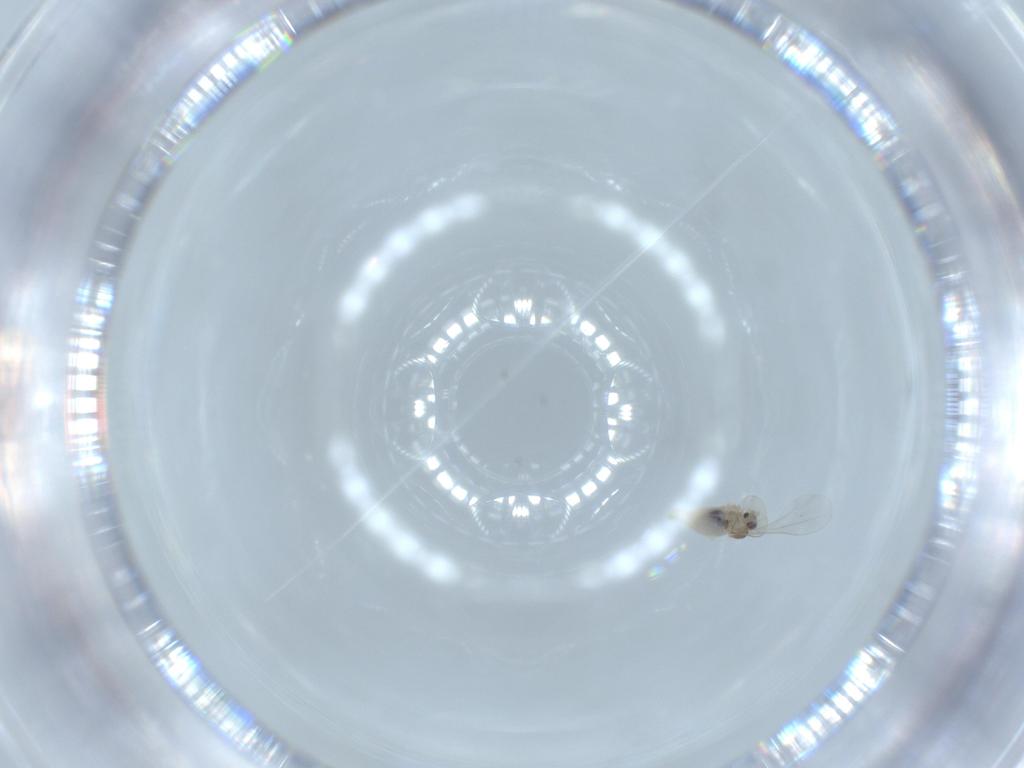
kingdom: Animalia
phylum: Arthropoda
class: Insecta
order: Diptera
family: Cecidomyiidae
